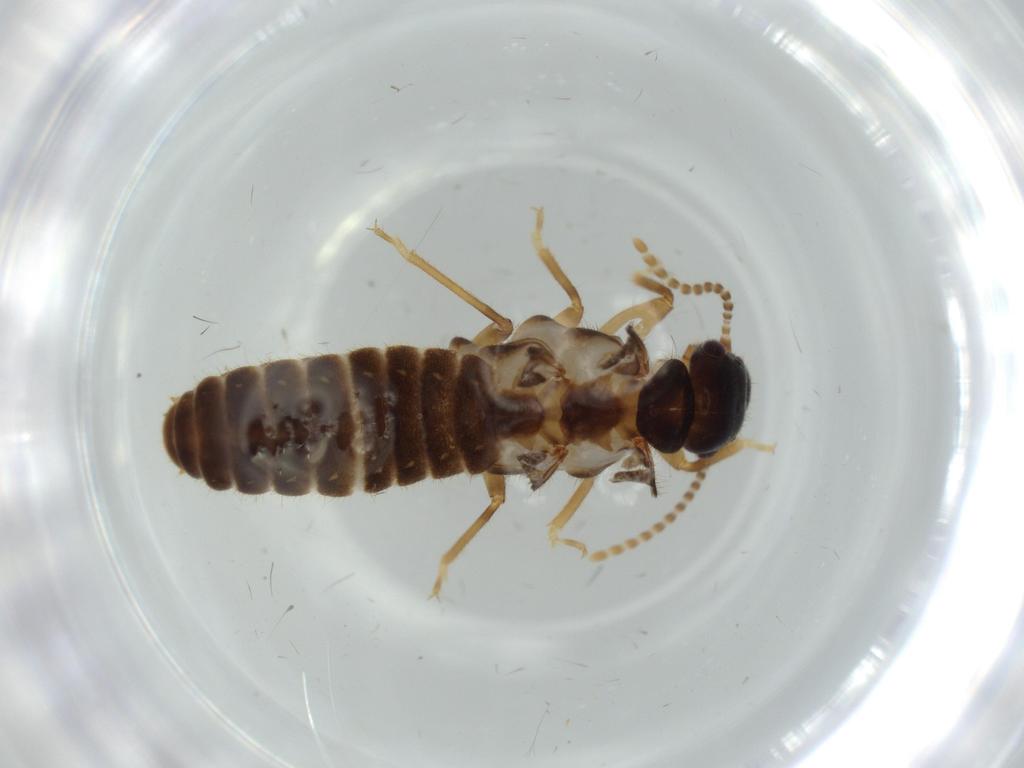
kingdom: Animalia
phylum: Arthropoda
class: Insecta
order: Blattodea
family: Termitidae
